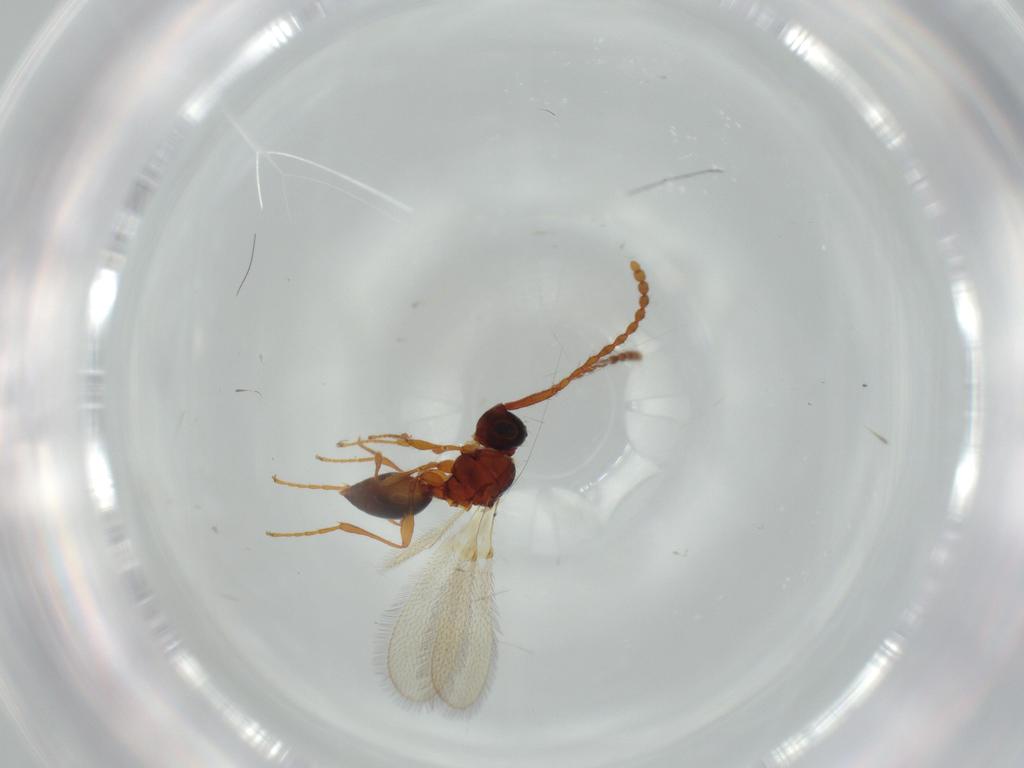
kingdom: Animalia
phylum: Arthropoda
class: Insecta
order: Hymenoptera
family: Diapriidae
